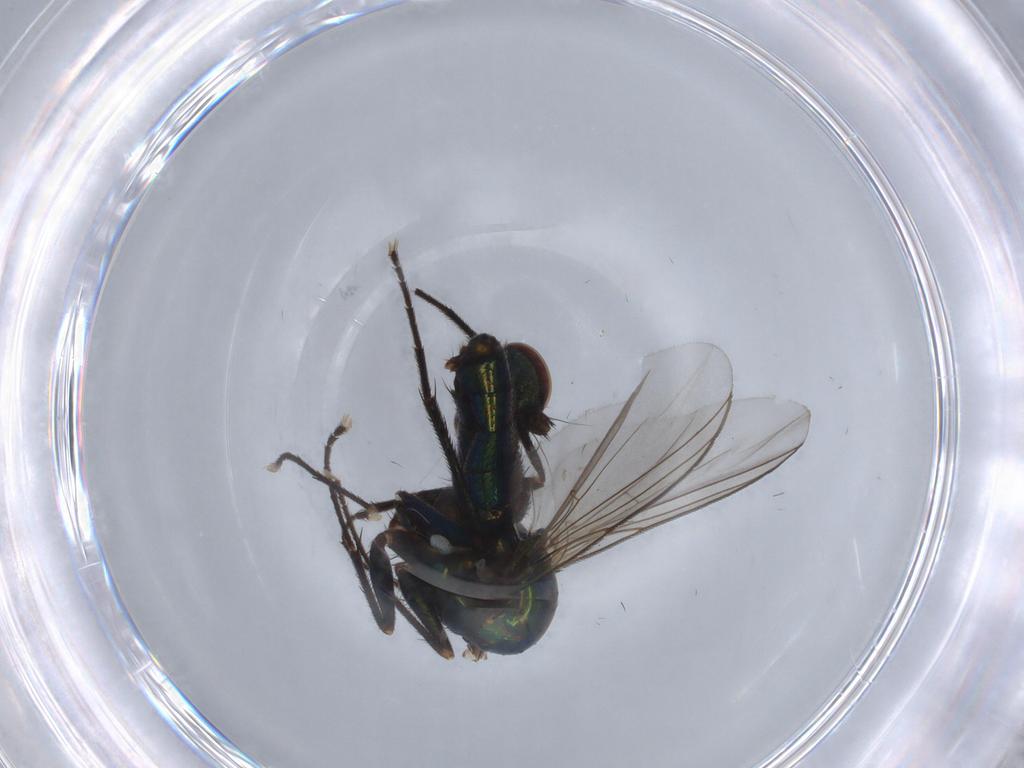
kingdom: Animalia
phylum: Arthropoda
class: Insecta
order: Diptera
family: Dolichopodidae
